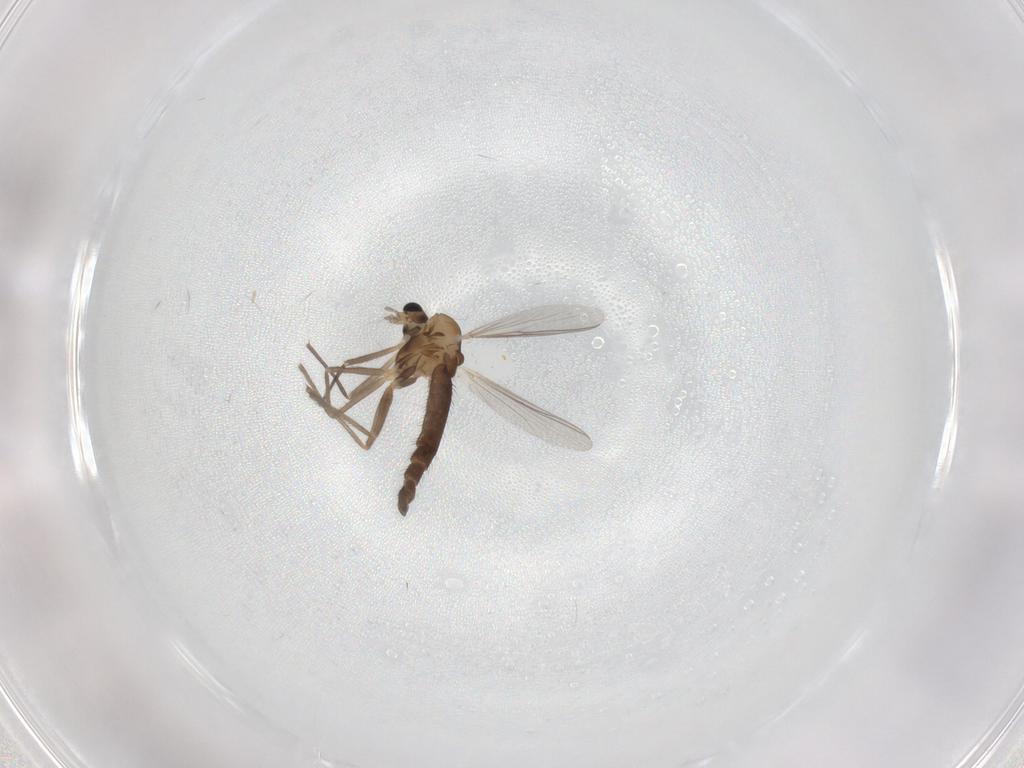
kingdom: Animalia
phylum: Arthropoda
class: Insecta
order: Diptera
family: Chironomidae
